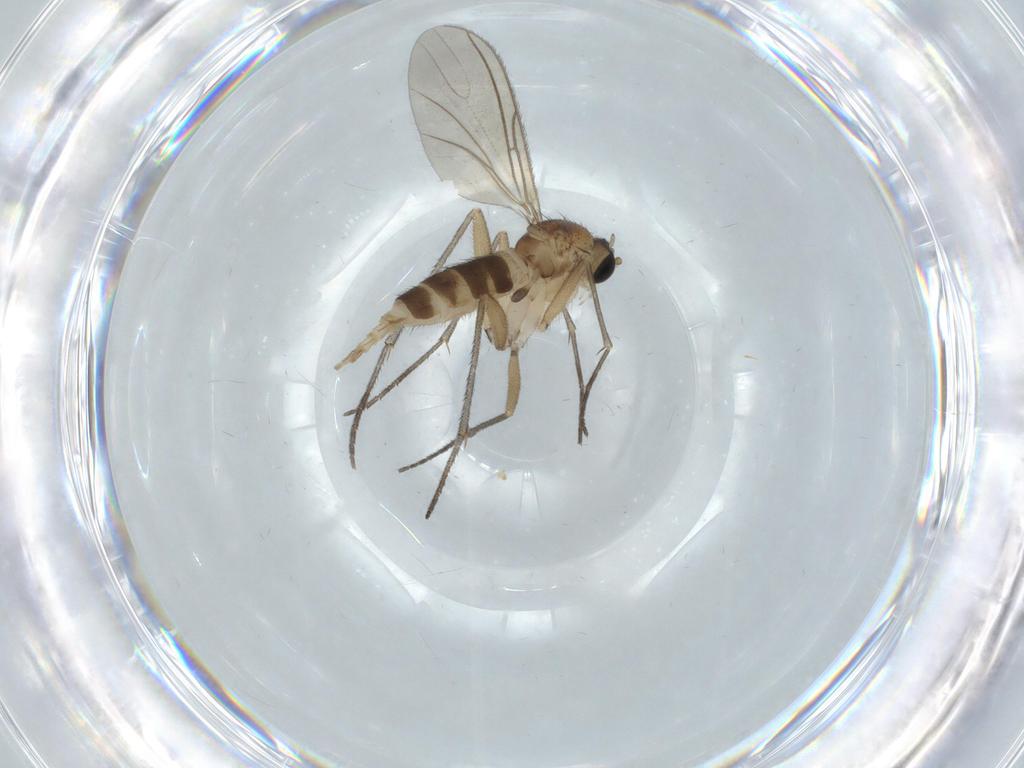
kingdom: Animalia
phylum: Arthropoda
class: Insecta
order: Diptera
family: Sciaridae
